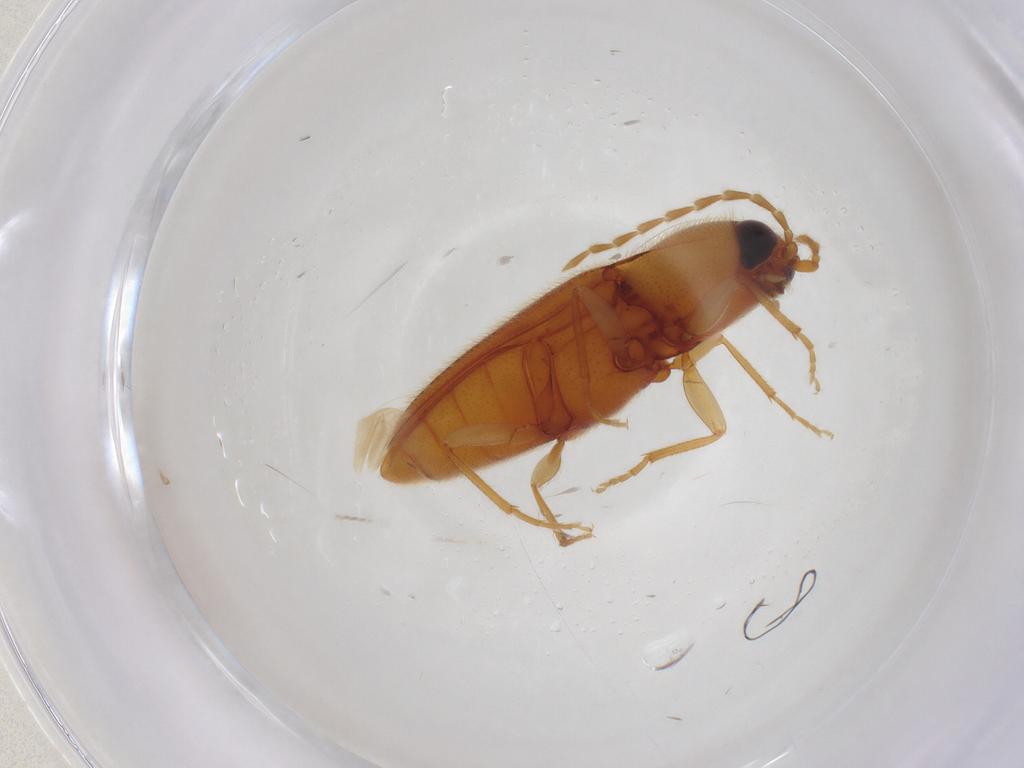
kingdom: Animalia
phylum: Arthropoda
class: Insecta
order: Coleoptera
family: Elateridae
